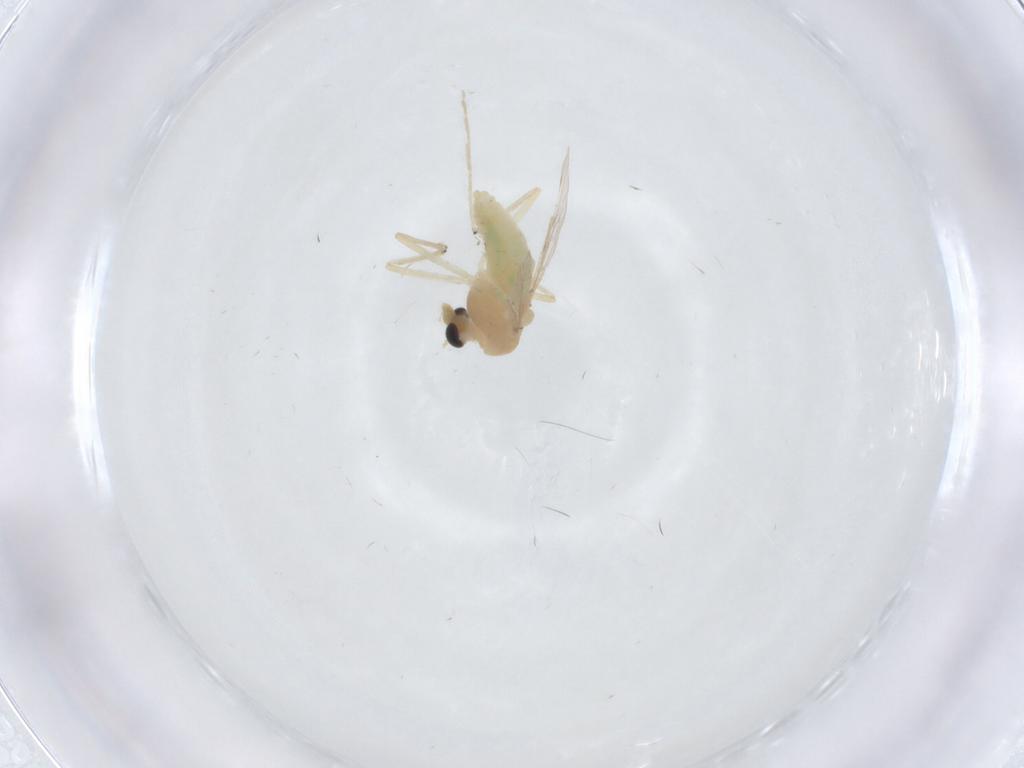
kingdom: Animalia
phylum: Arthropoda
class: Insecta
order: Diptera
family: Chironomidae
